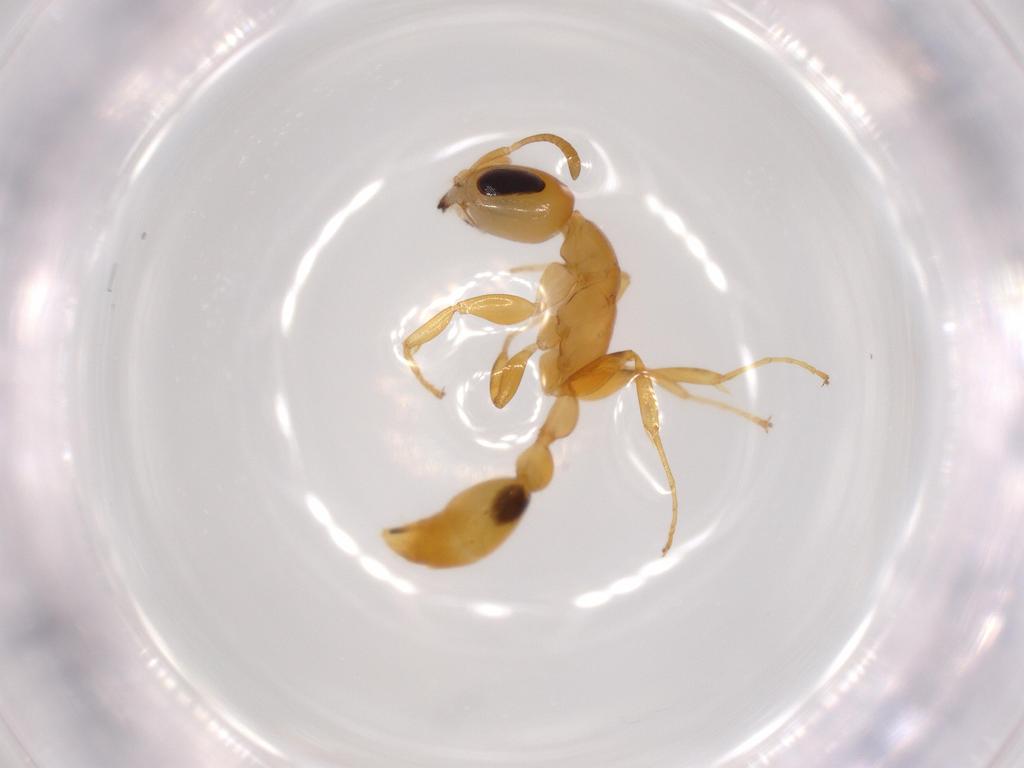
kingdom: Animalia
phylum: Arthropoda
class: Insecta
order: Hymenoptera
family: Formicidae
